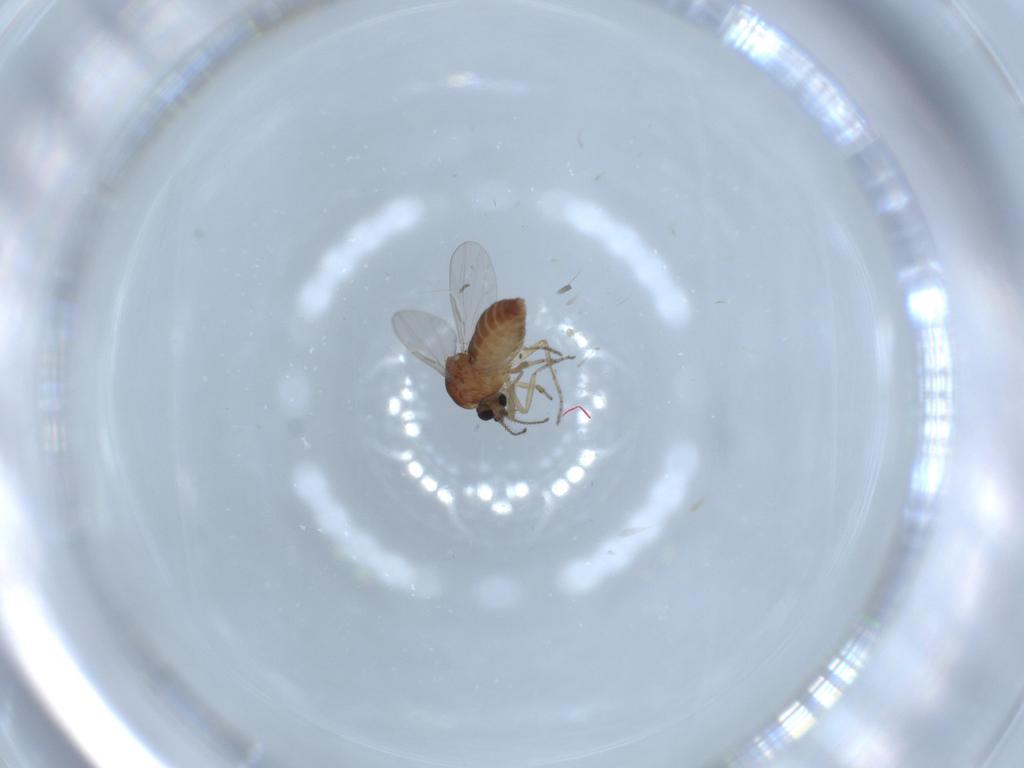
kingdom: Animalia
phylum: Arthropoda
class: Insecta
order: Diptera
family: Ceratopogonidae
